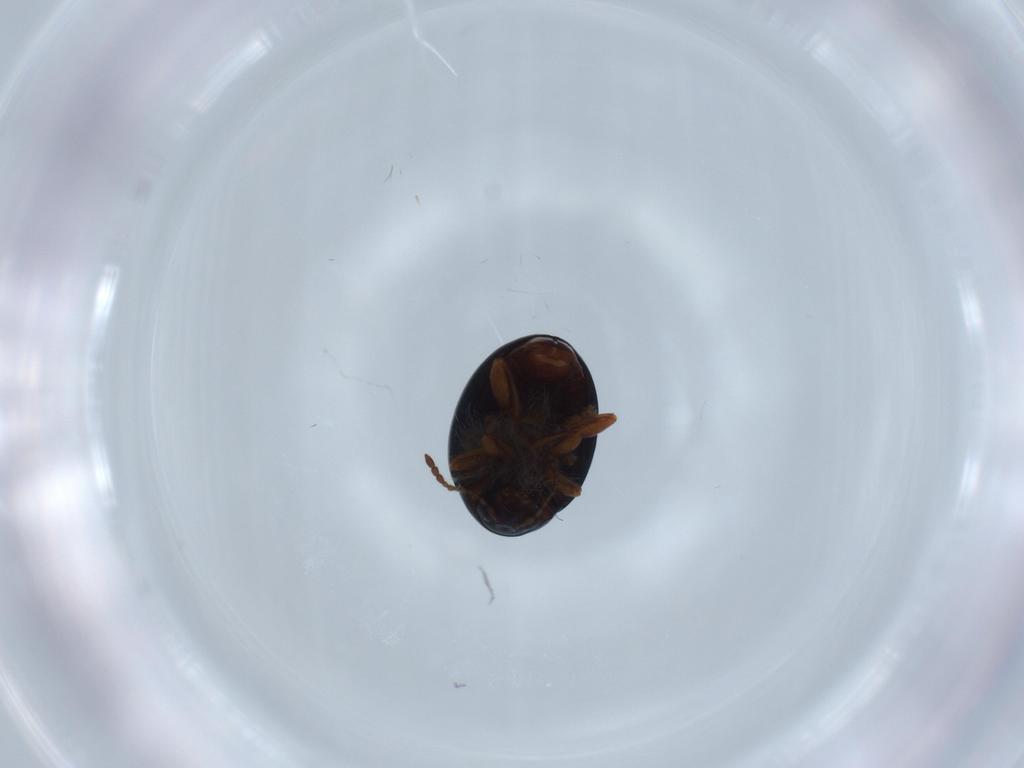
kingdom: Animalia
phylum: Arthropoda
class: Insecta
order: Coleoptera
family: Chrysomelidae
